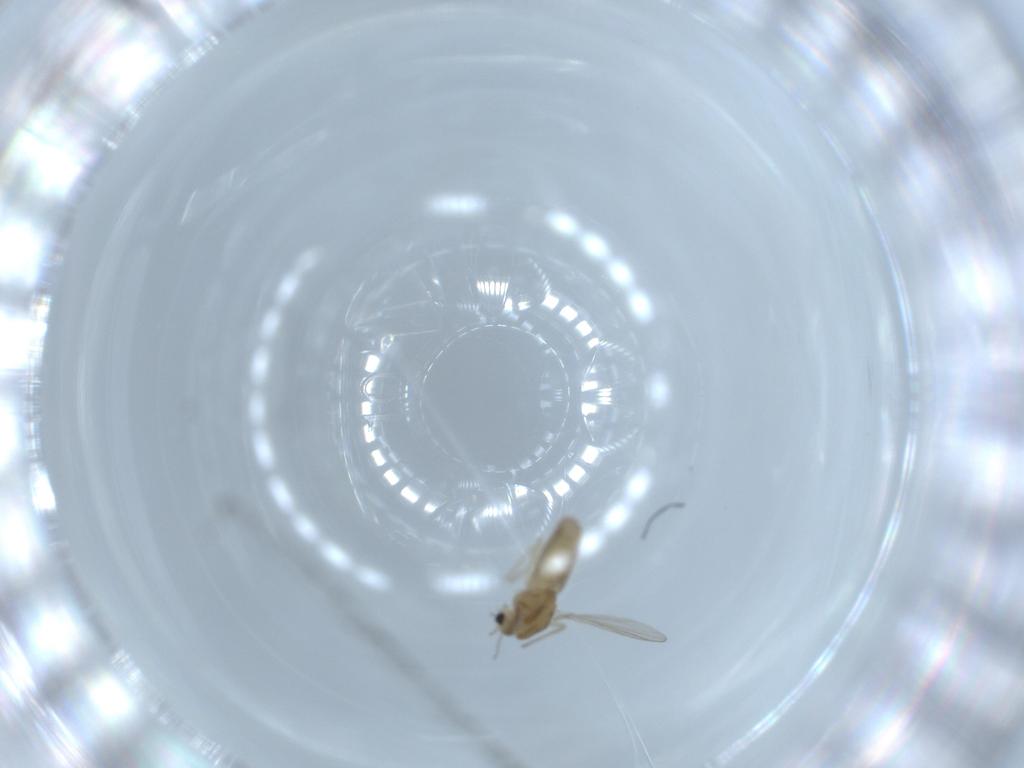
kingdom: Animalia
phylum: Arthropoda
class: Insecta
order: Diptera
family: Chironomidae
